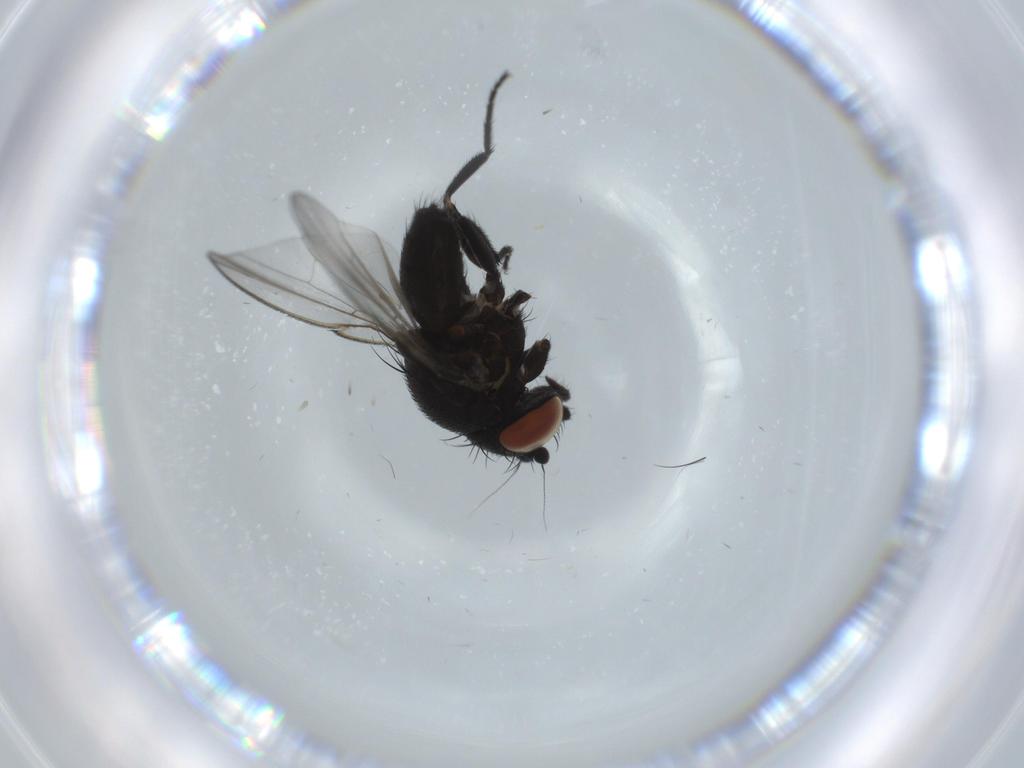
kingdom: Animalia
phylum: Arthropoda
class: Insecta
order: Diptera
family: Milichiidae
